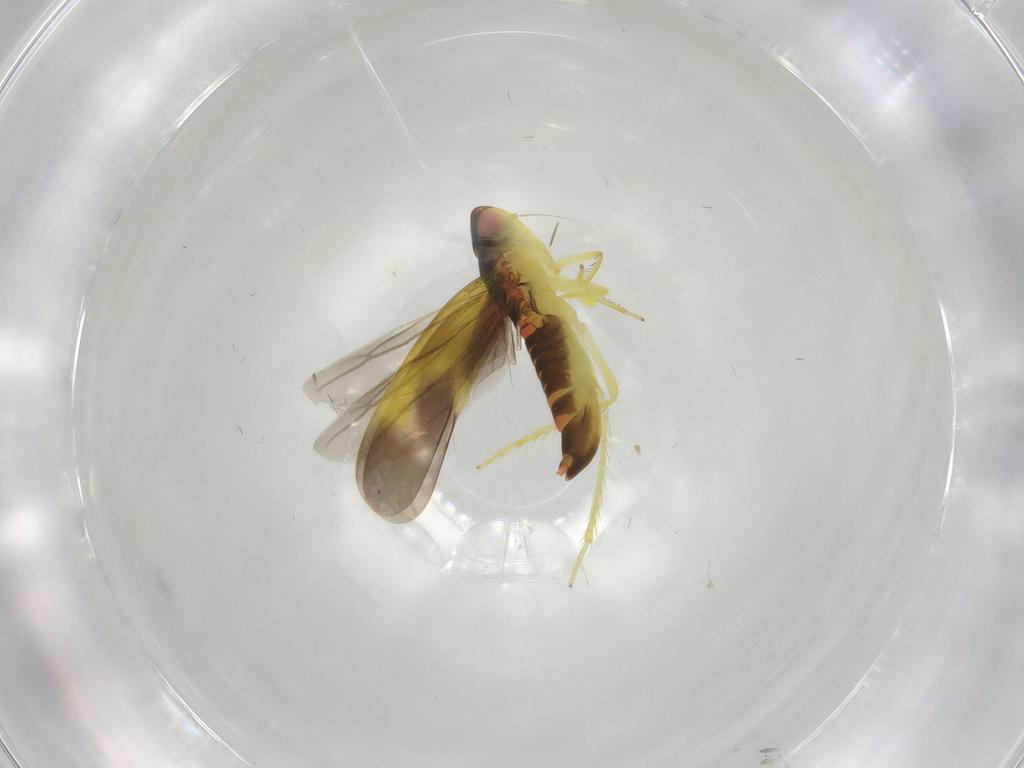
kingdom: Animalia
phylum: Arthropoda
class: Insecta
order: Hemiptera
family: Cicadellidae
